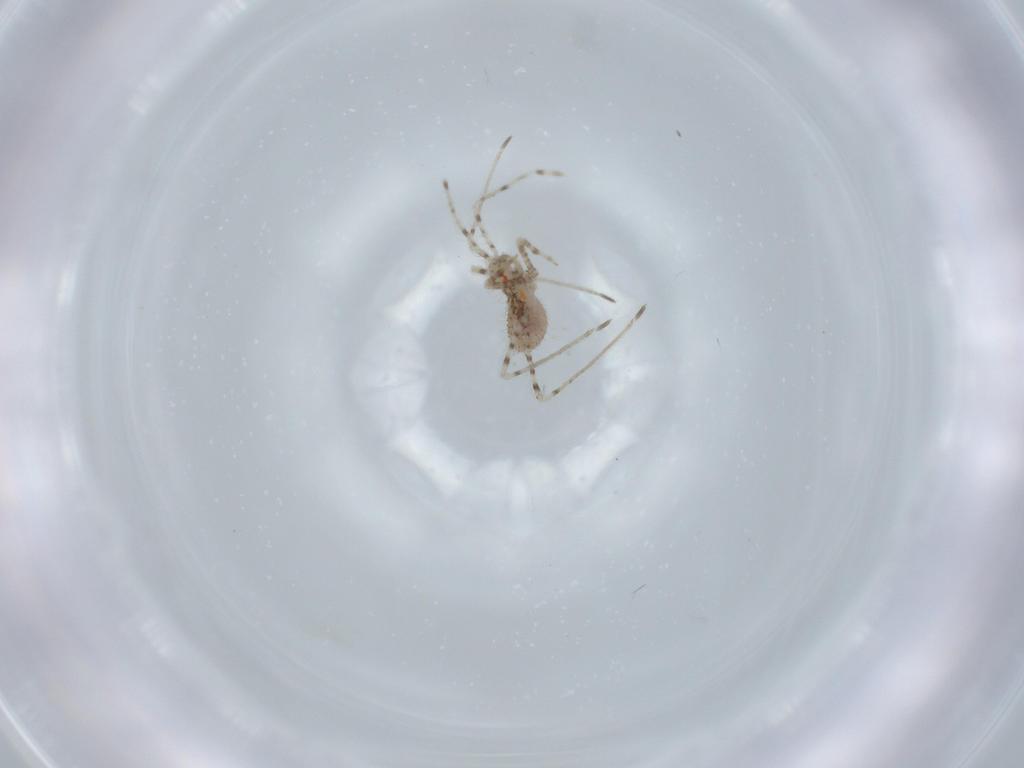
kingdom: Animalia
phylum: Arthropoda
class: Insecta
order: Hemiptera
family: Reduviidae
